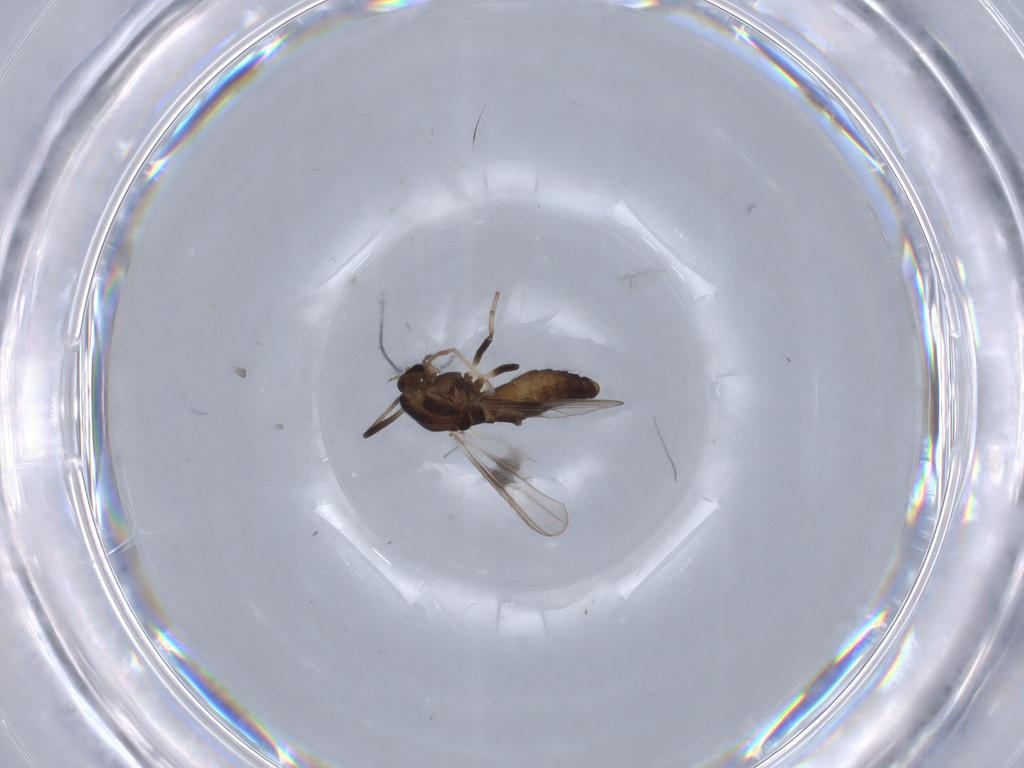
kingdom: Animalia
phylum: Arthropoda
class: Insecta
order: Diptera
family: Chironomidae
